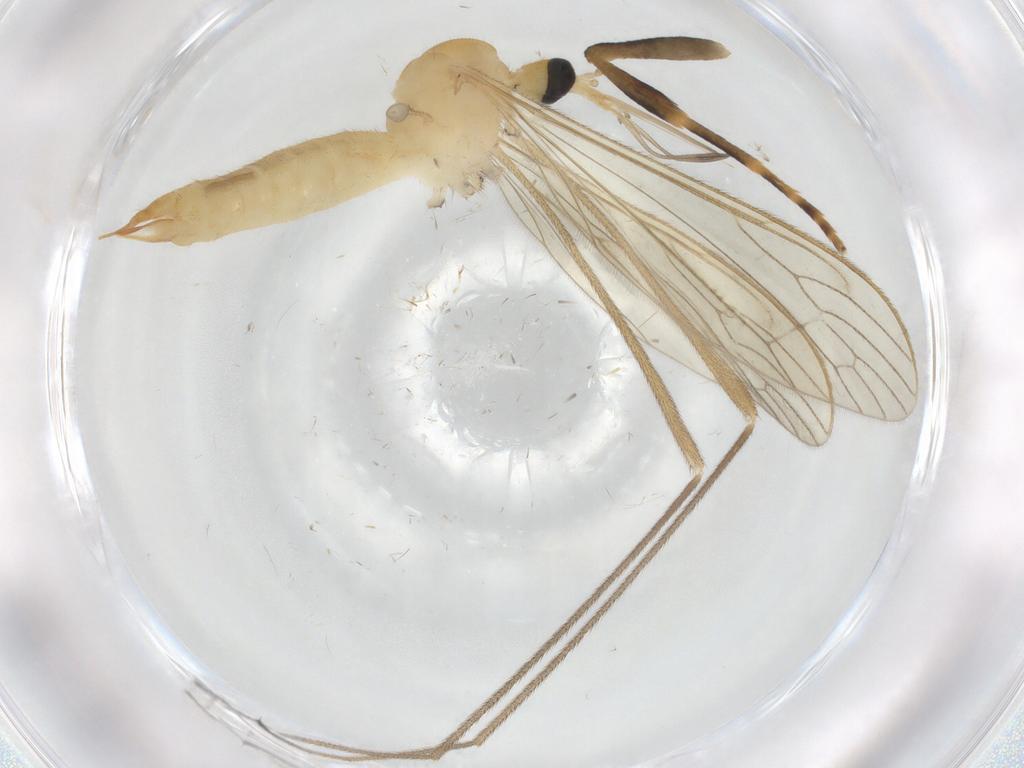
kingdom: Animalia
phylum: Arthropoda
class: Insecta
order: Diptera
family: Limoniidae
